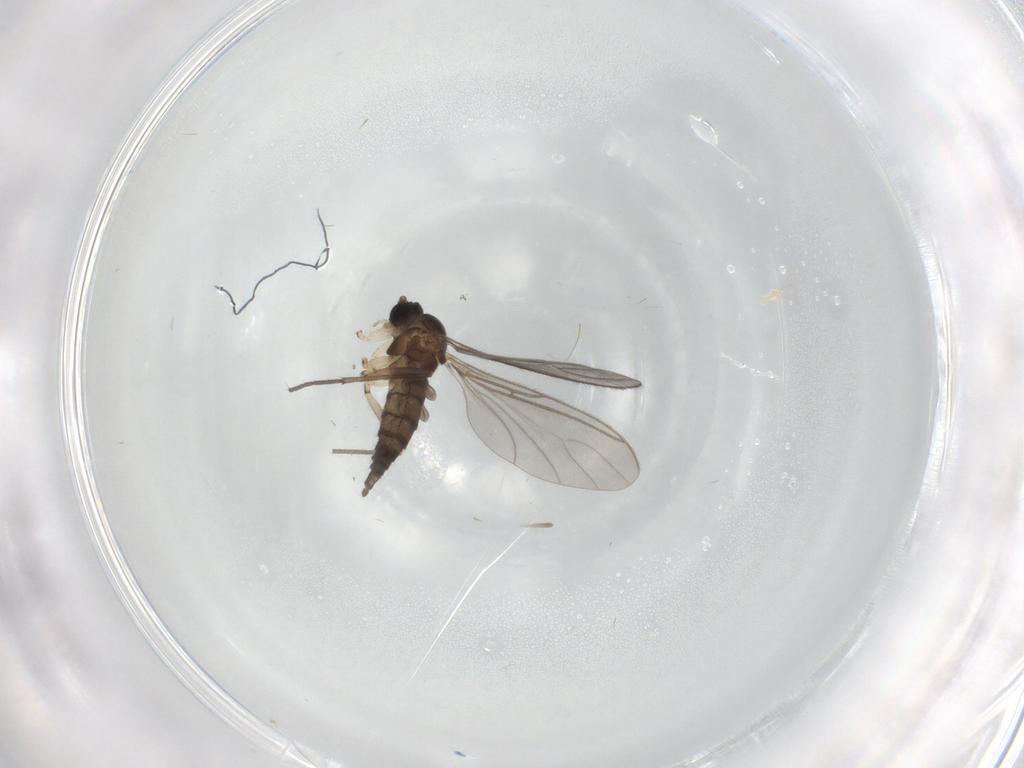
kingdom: Animalia
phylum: Arthropoda
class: Insecta
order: Diptera
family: Sciaridae
